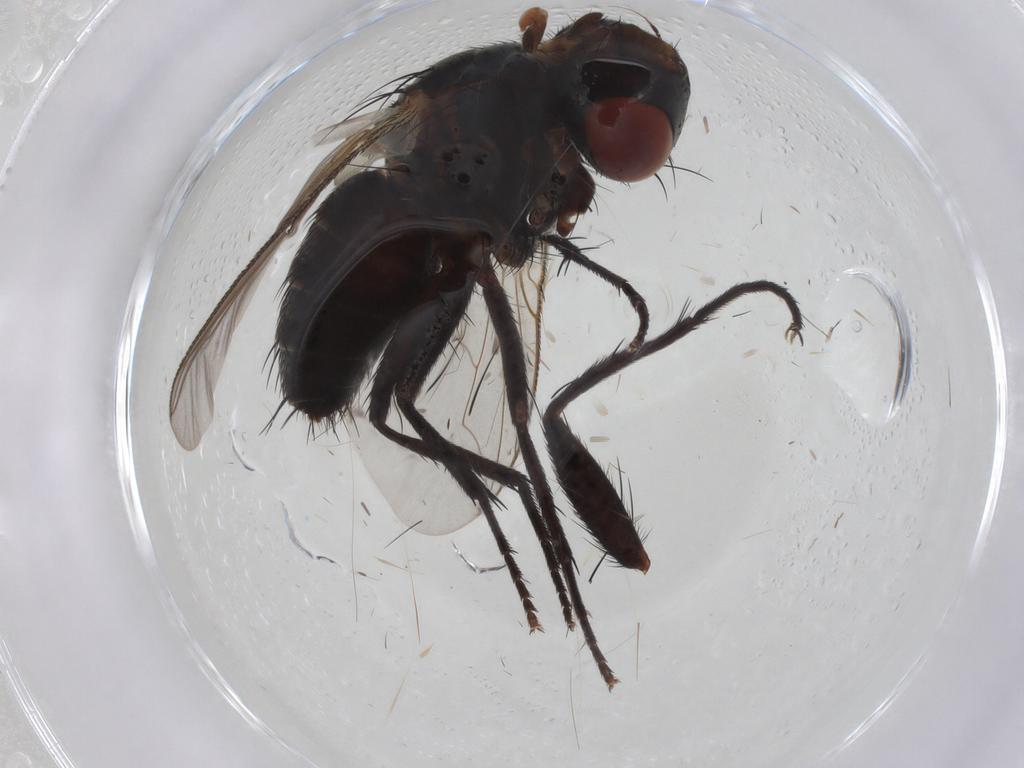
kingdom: Animalia
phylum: Arthropoda
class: Insecta
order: Diptera
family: Sarcophagidae
